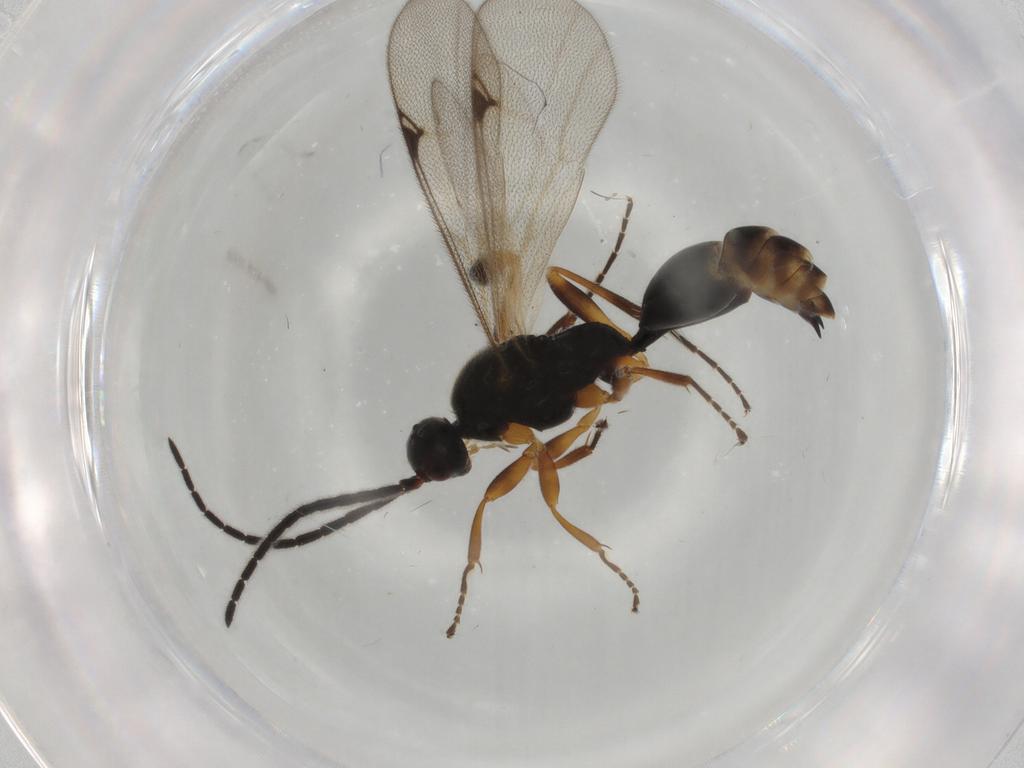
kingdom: Animalia
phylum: Arthropoda
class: Insecta
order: Hymenoptera
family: Proctotrupidae
